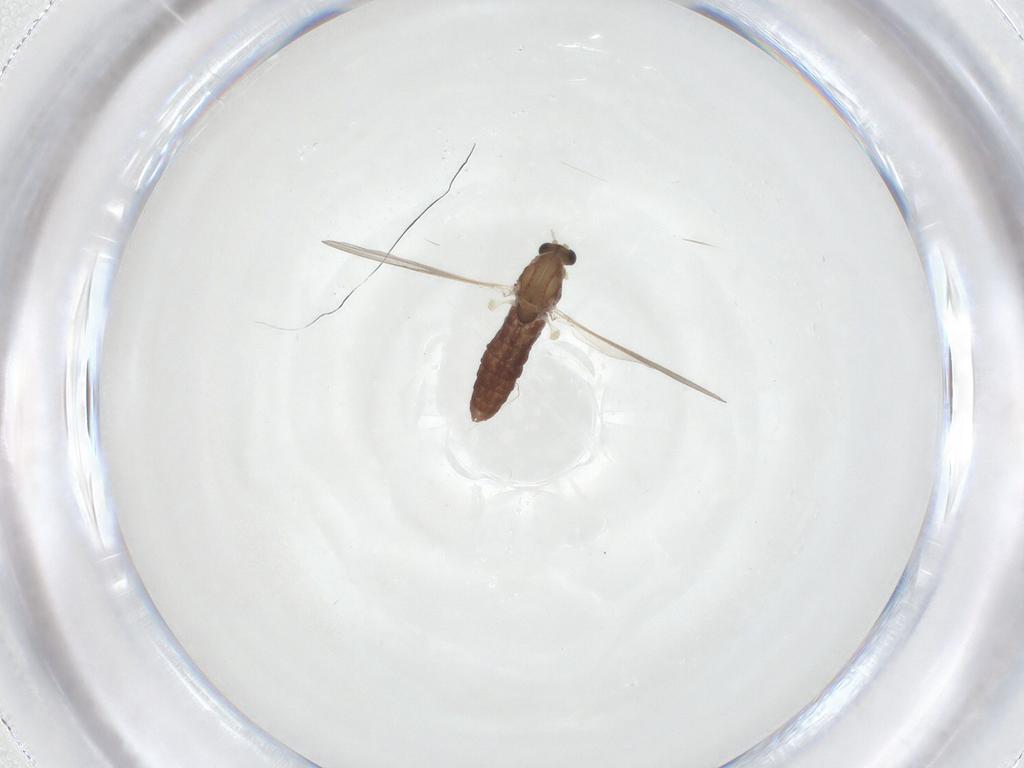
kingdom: Animalia
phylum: Arthropoda
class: Insecta
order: Diptera
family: Chironomidae
